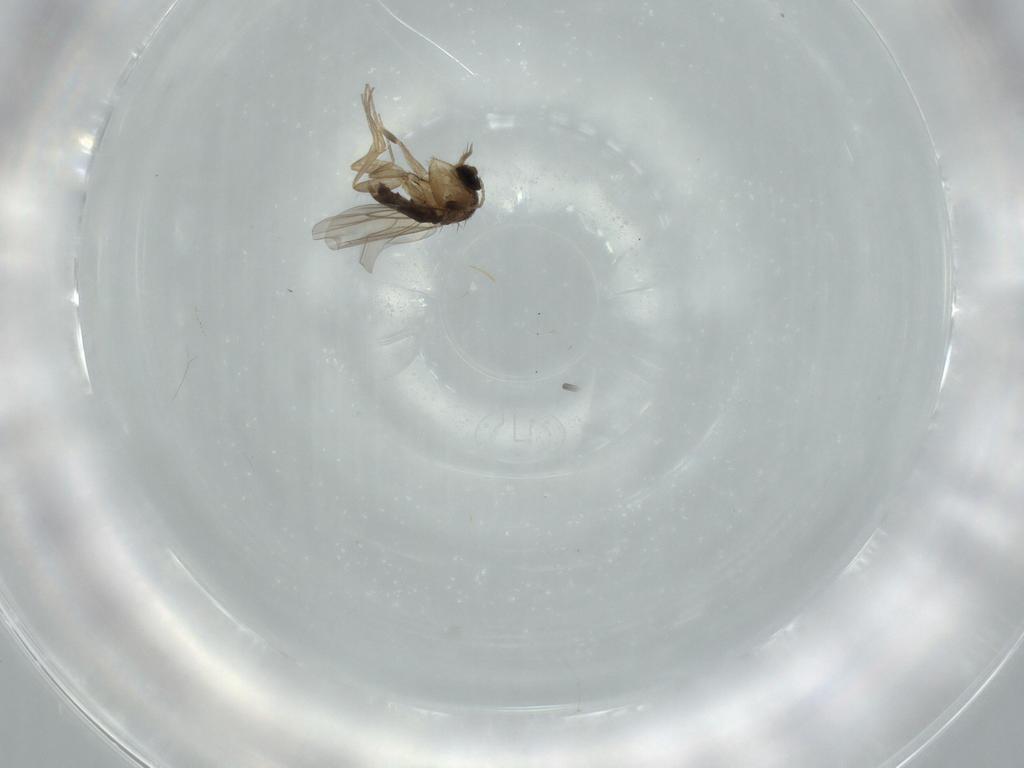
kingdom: Animalia
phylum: Arthropoda
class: Insecta
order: Diptera
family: Phoridae
